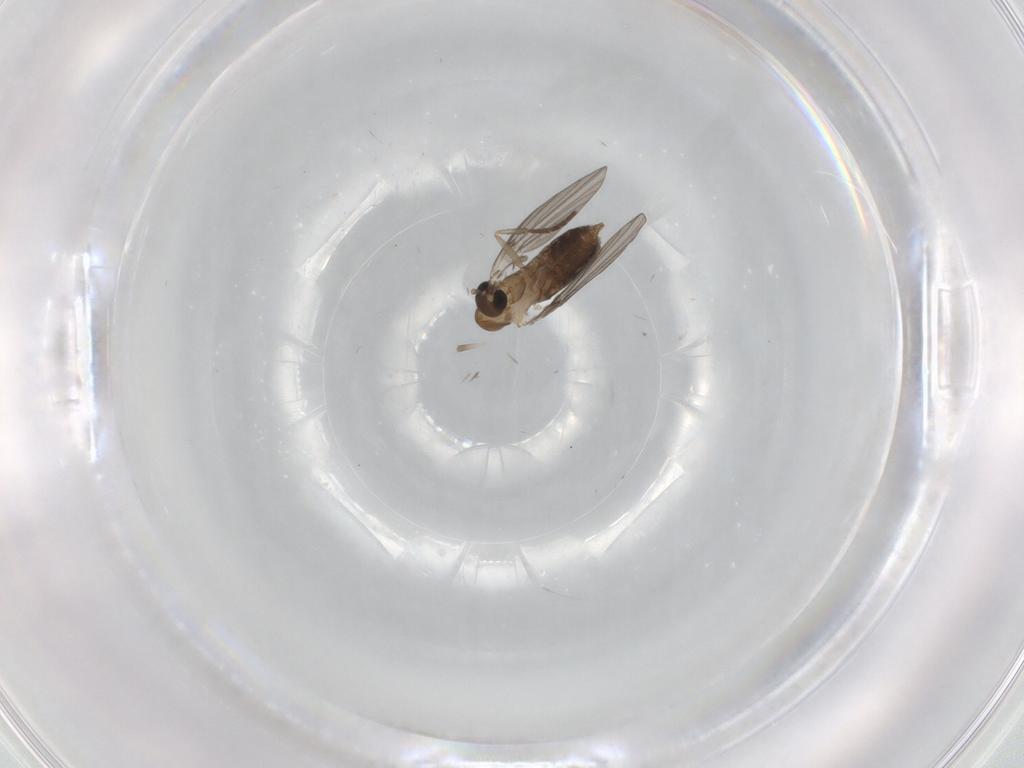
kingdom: Animalia
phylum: Arthropoda
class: Insecta
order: Diptera
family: Psychodidae
